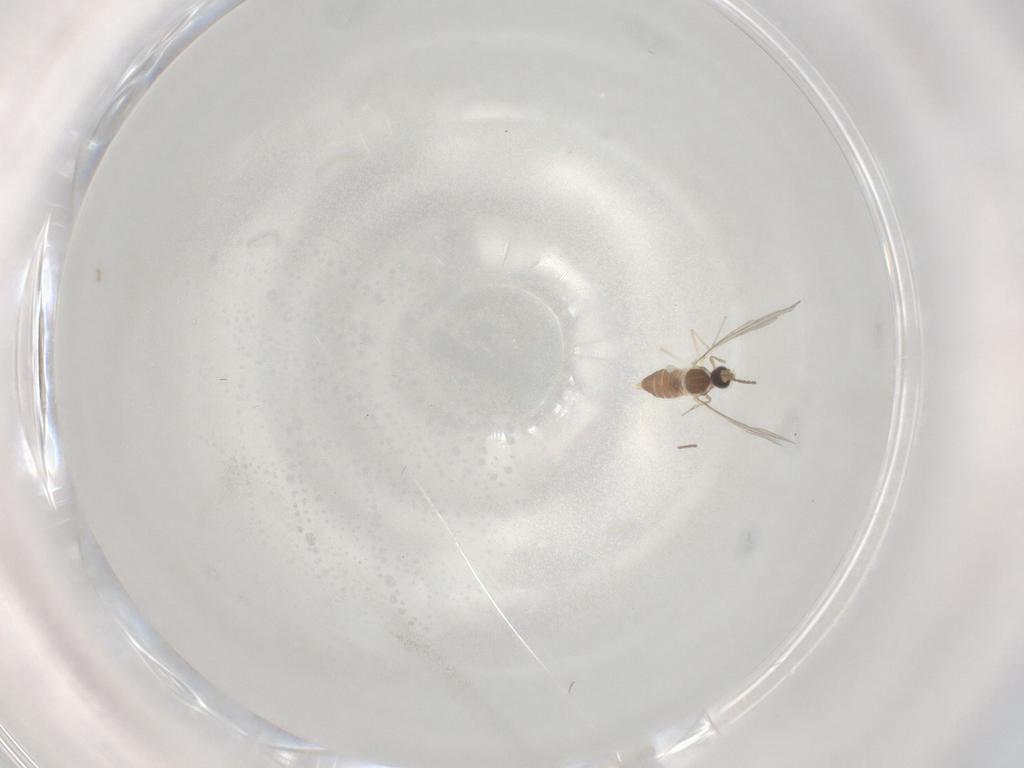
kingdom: Animalia
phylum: Arthropoda
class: Insecta
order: Diptera
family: Cecidomyiidae
